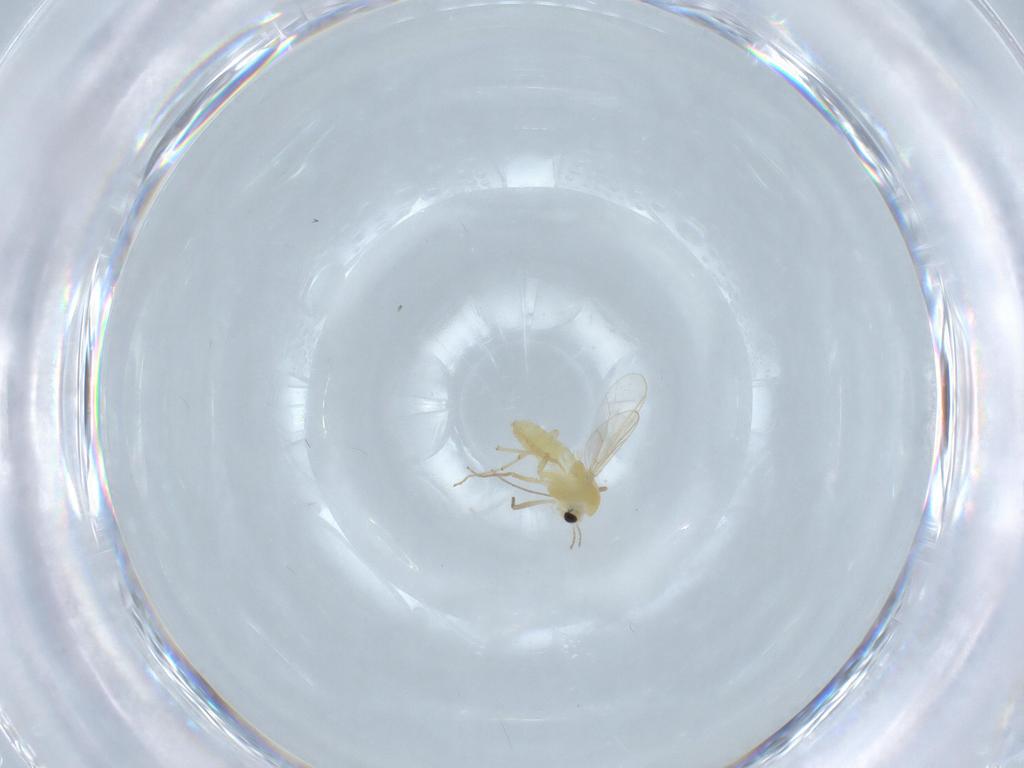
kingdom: Animalia
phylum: Arthropoda
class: Insecta
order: Diptera
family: Chironomidae
